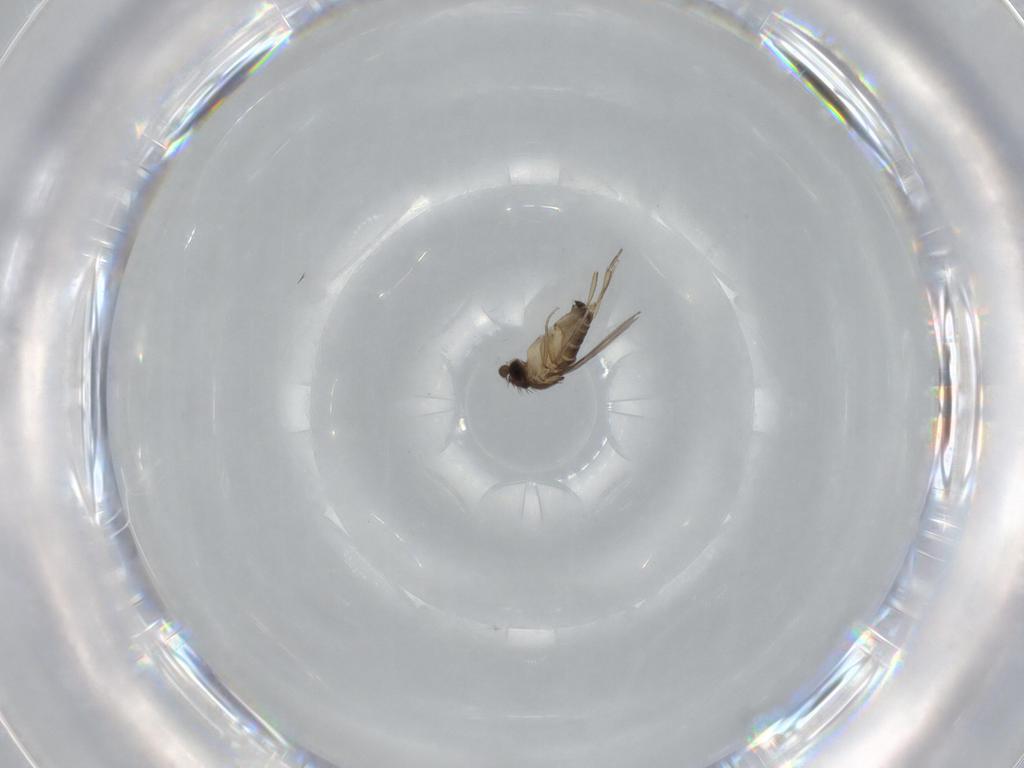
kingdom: Animalia
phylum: Arthropoda
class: Insecta
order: Diptera
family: Phoridae
